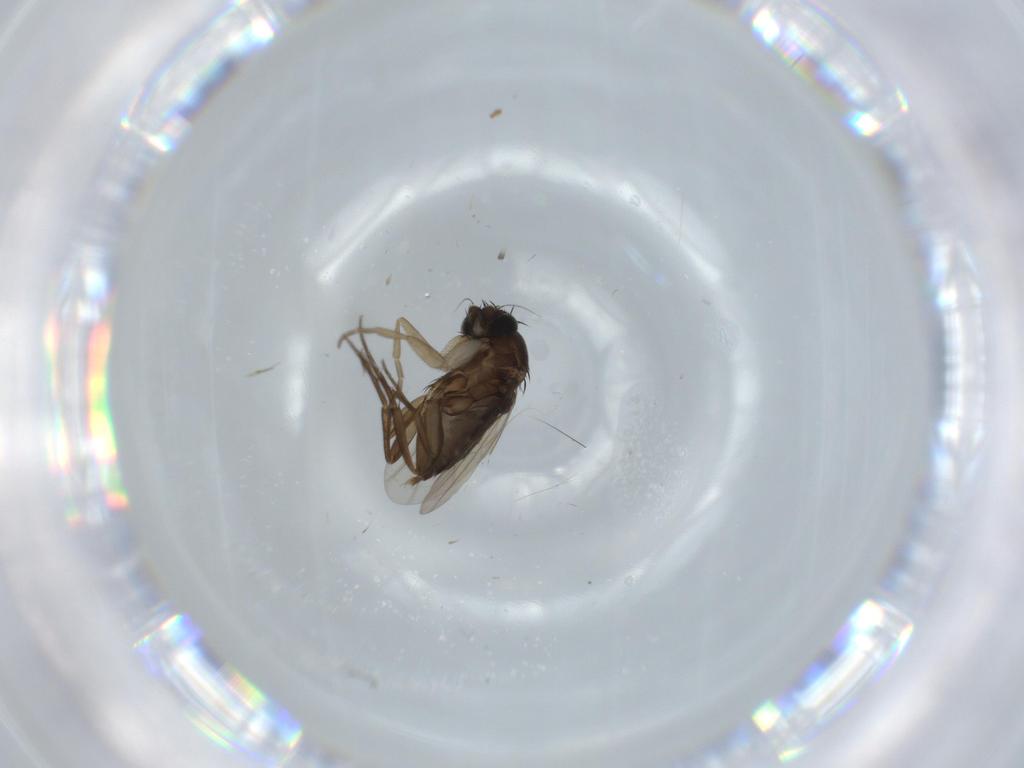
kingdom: Animalia
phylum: Arthropoda
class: Insecta
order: Diptera
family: Phoridae
